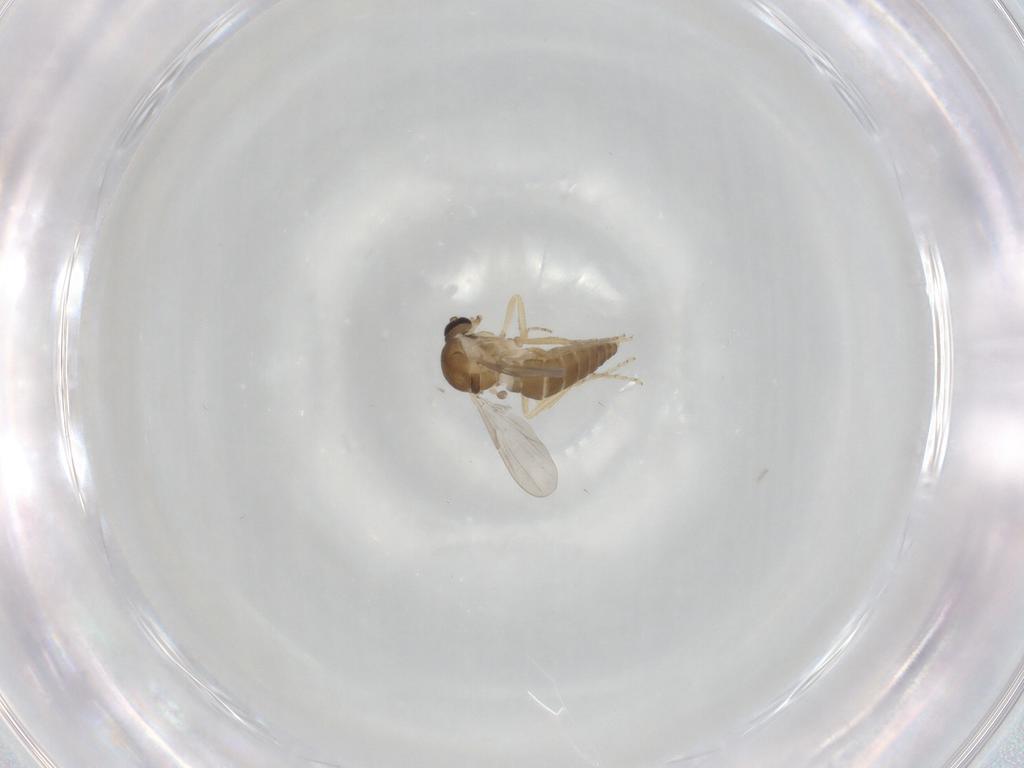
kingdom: Animalia
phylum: Arthropoda
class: Insecta
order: Diptera
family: Ceratopogonidae
